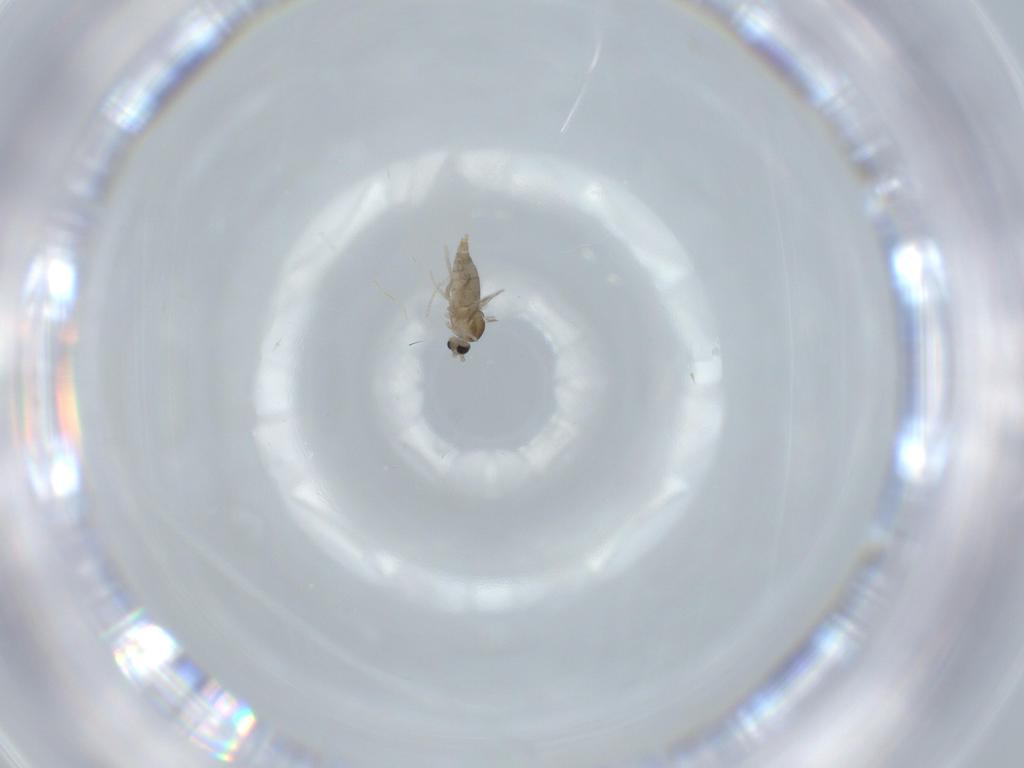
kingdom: Animalia
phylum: Arthropoda
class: Insecta
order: Diptera
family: Cecidomyiidae
